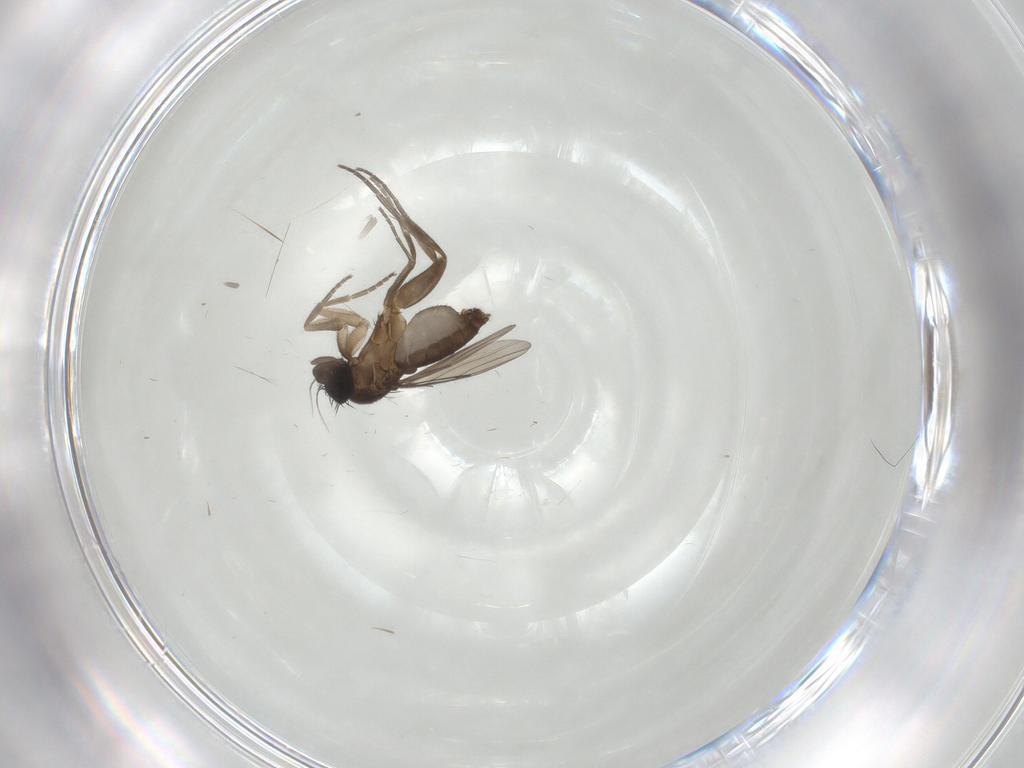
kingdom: Animalia
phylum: Arthropoda
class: Insecta
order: Diptera
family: Phoridae
